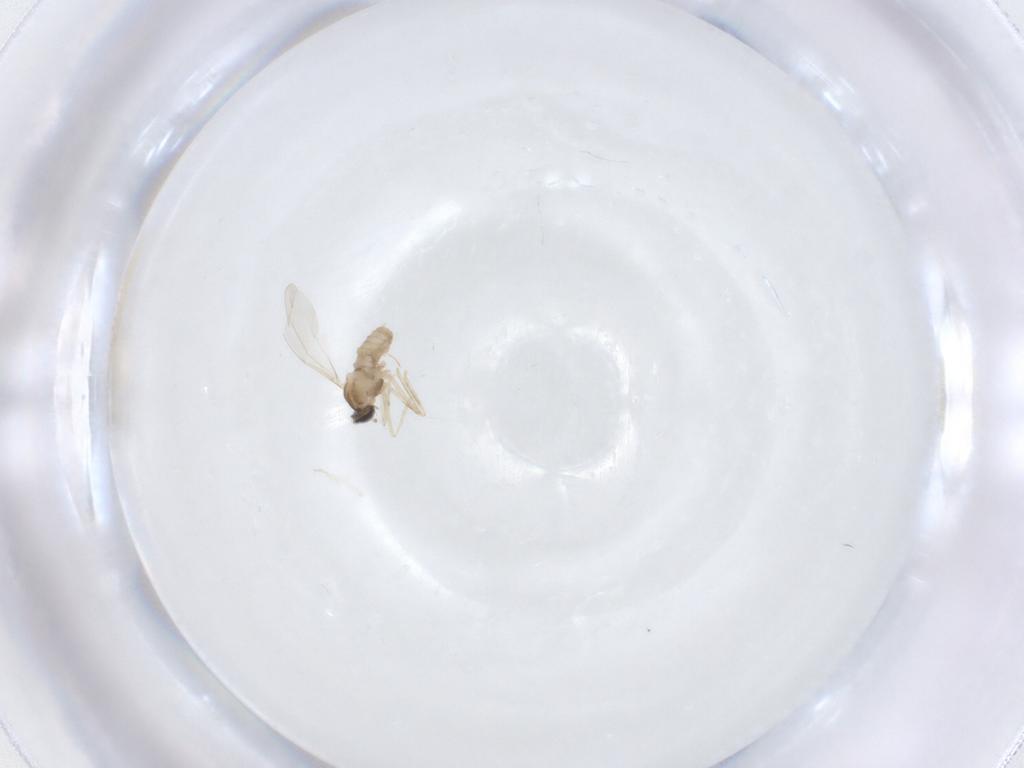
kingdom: Animalia
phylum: Arthropoda
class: Insecta
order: Diptera
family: Cecidomyiidae
